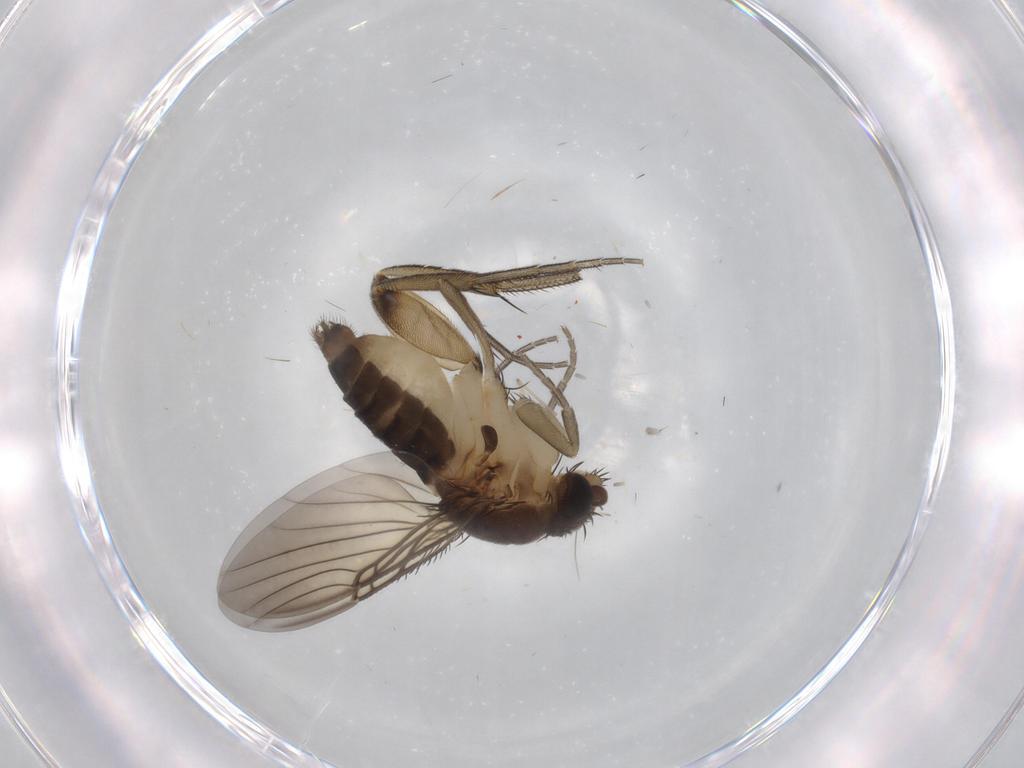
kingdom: Animalia
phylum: Arthropoda
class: Insecta
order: Diptera
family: Phoridae
